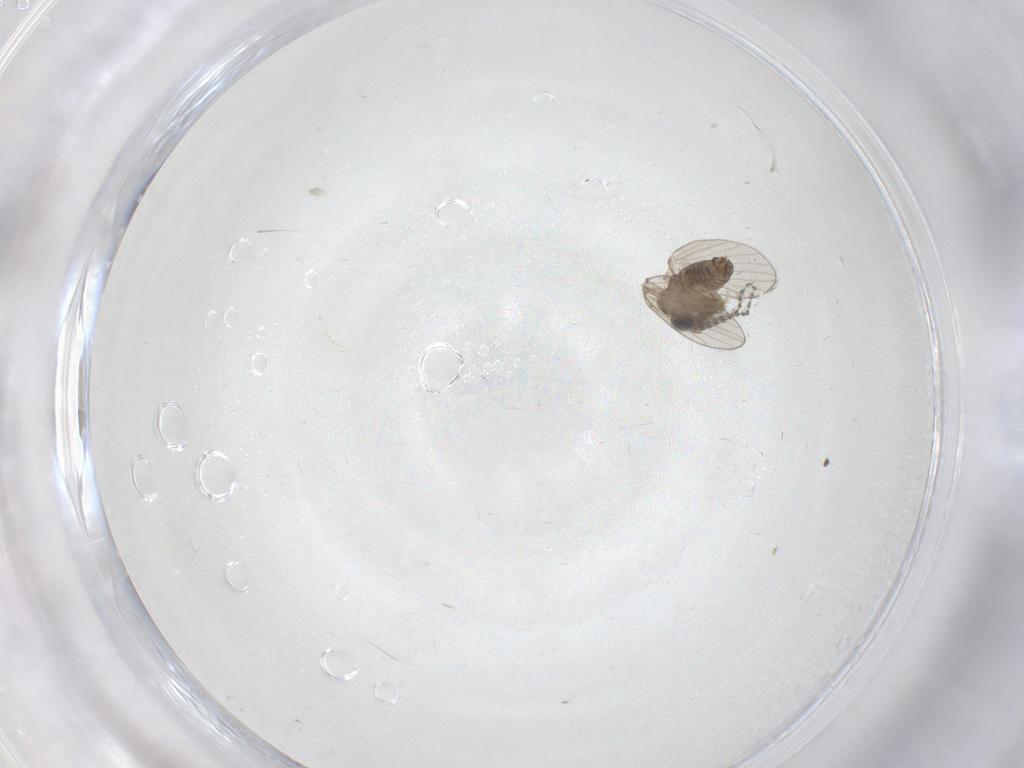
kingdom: Animalia
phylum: Arthropoda
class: Insecta
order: Diptera
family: Psychodidae
